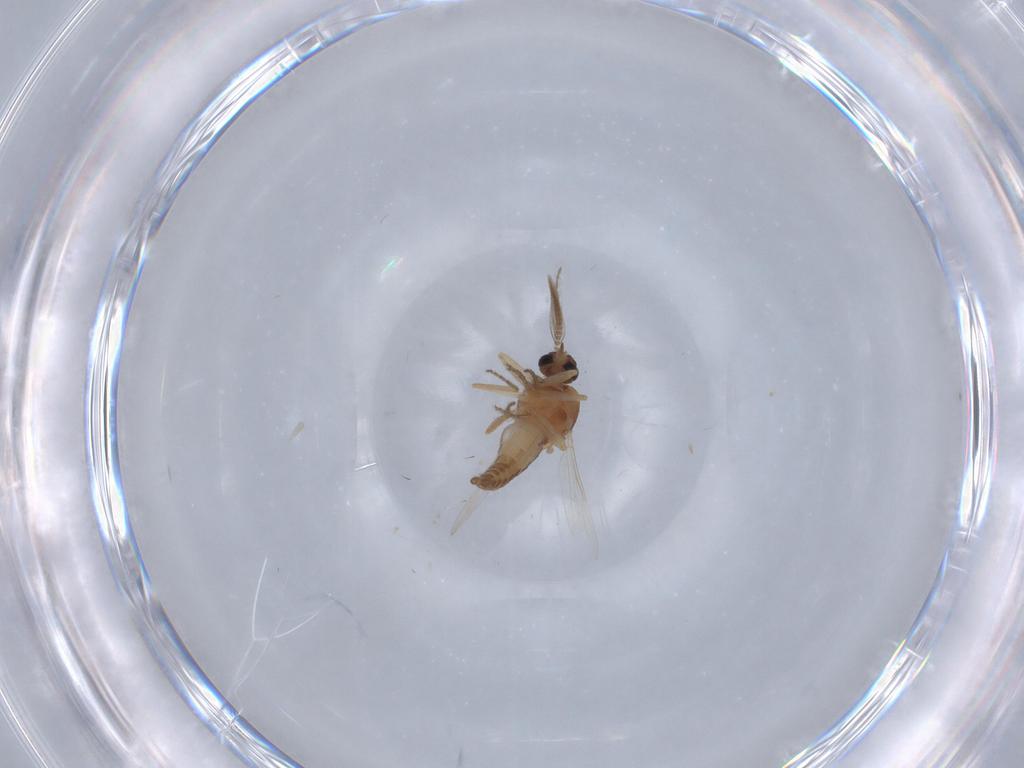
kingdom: Animalia
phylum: Arthropoda
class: Insecta
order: Diptera
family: Ceratopogonidae
